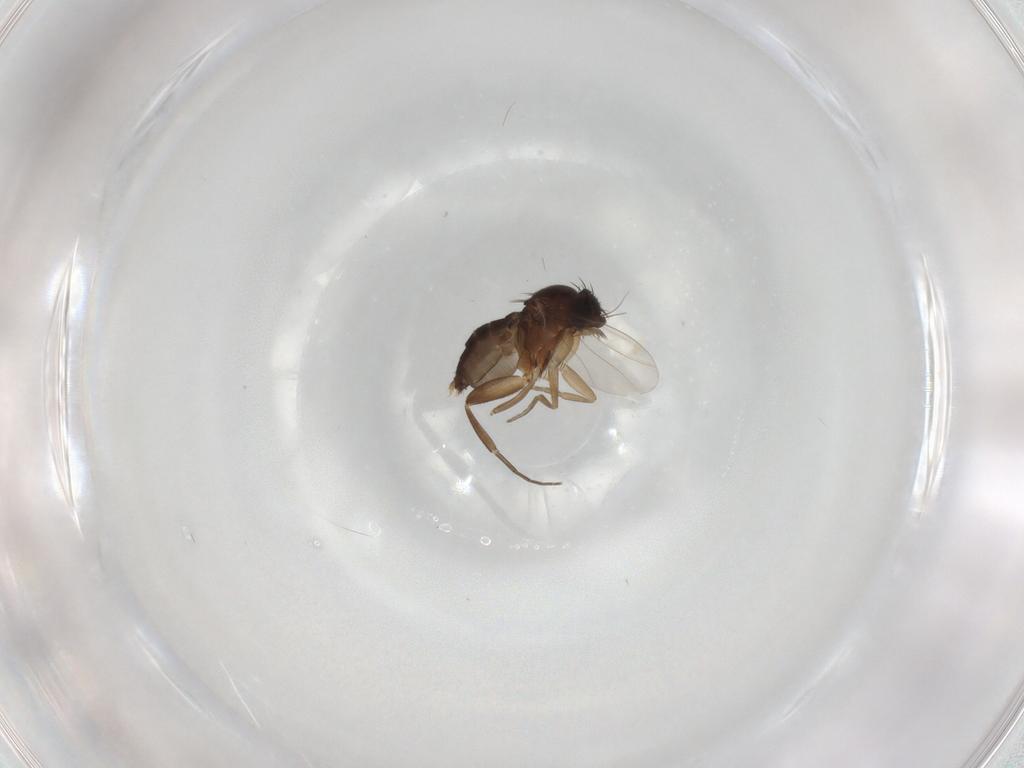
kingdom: Animalia
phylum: Arthropoda
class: Insecta
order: Diptera
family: Phoridae
